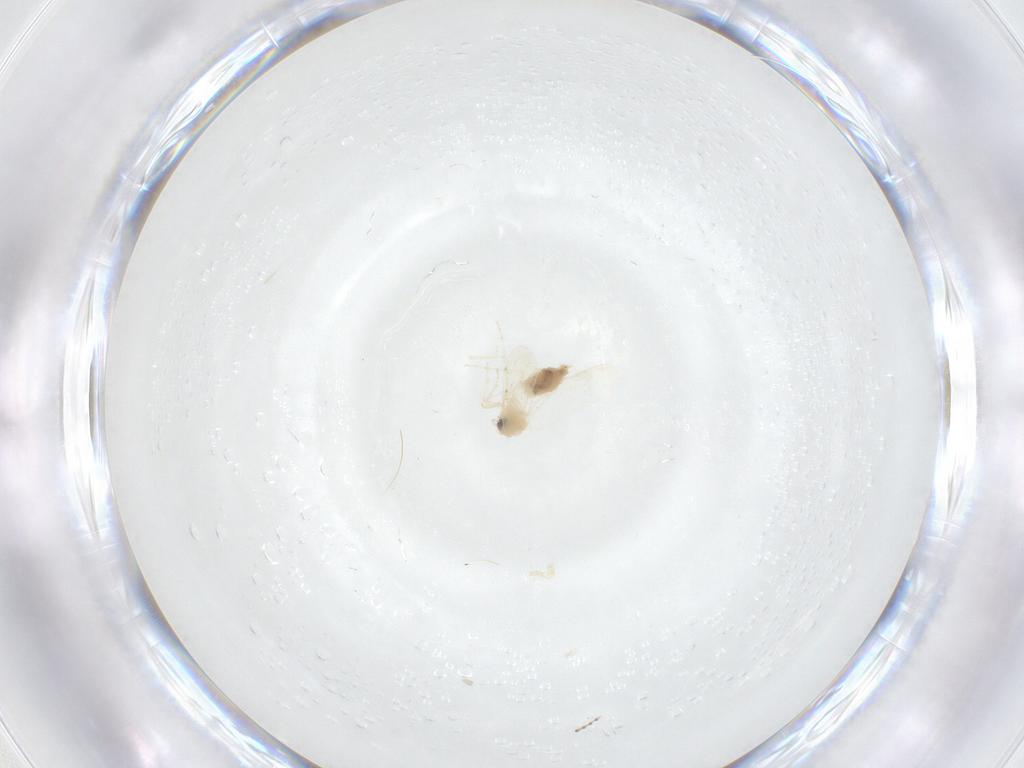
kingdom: Animalia
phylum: Arthropoda
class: Insecta
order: Hemiptera
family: Aleyrodidae
